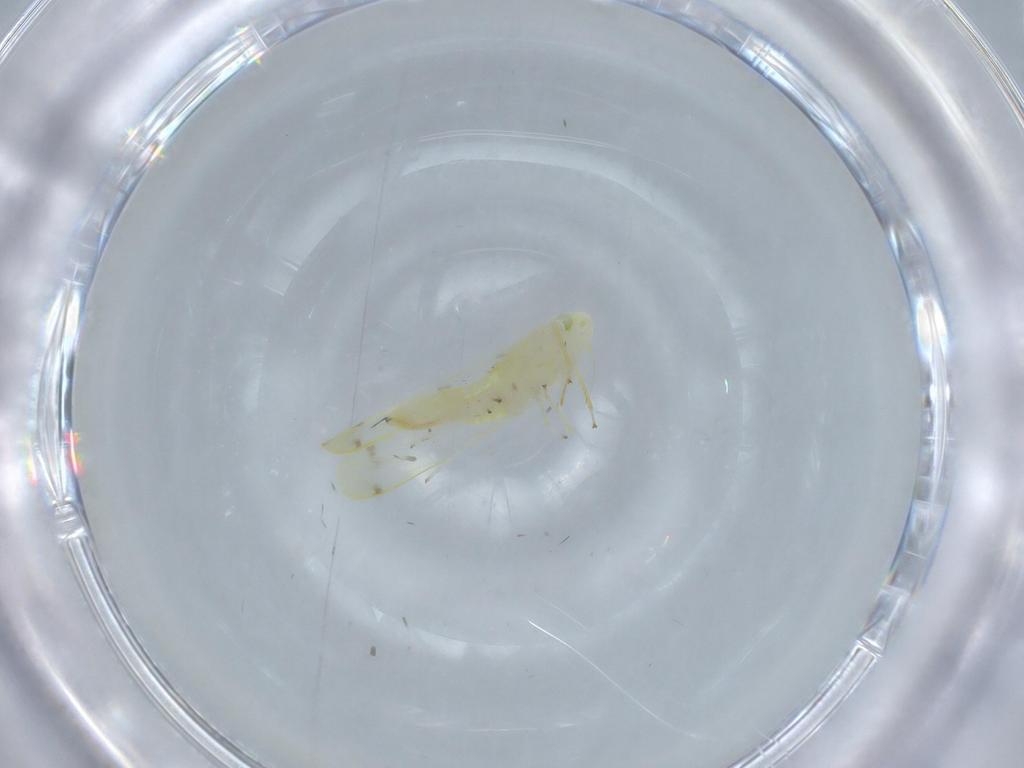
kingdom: Animalia
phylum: Arthropoda
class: Insecta
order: Hemiptera
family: Cicadellidae
